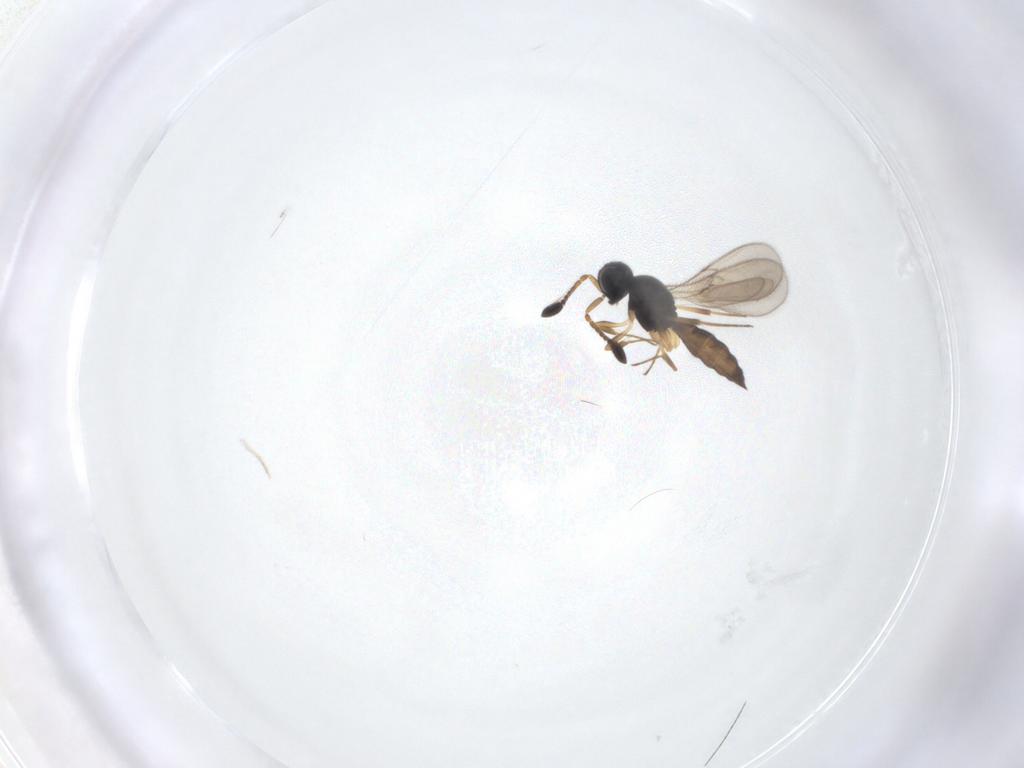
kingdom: Animalia
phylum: Arthropoda
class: Insecta
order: Hymenoptera
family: Scelionidae
